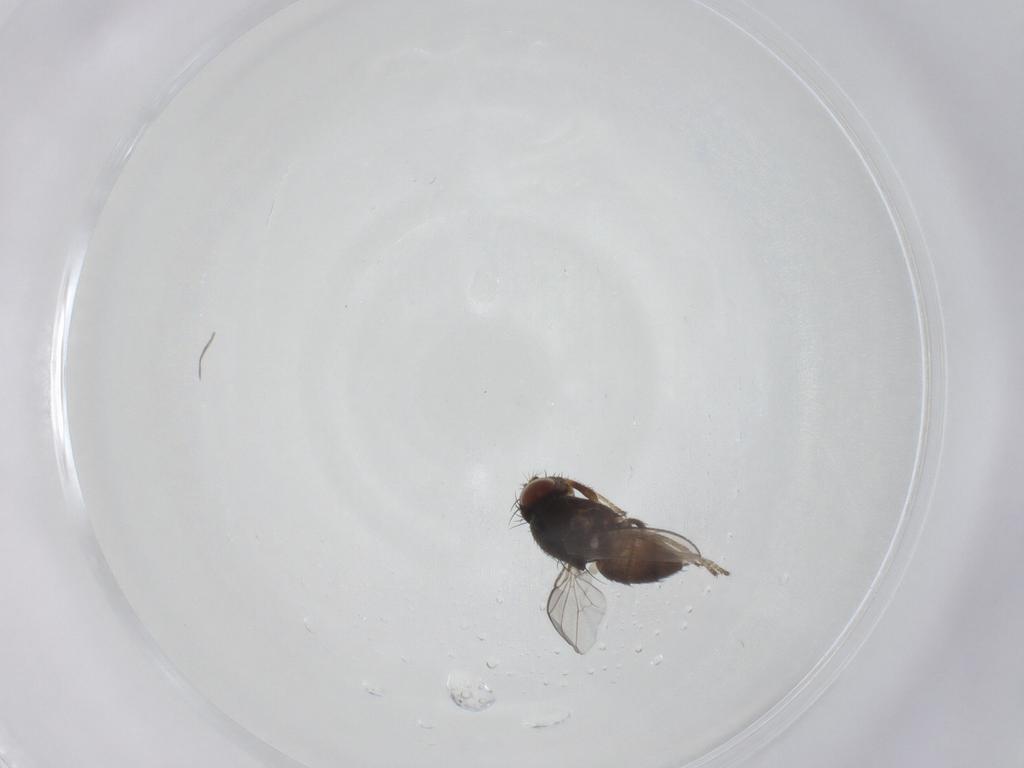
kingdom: Animalia
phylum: Arthropoda
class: Insecta
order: Diptera
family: Ephydridae
